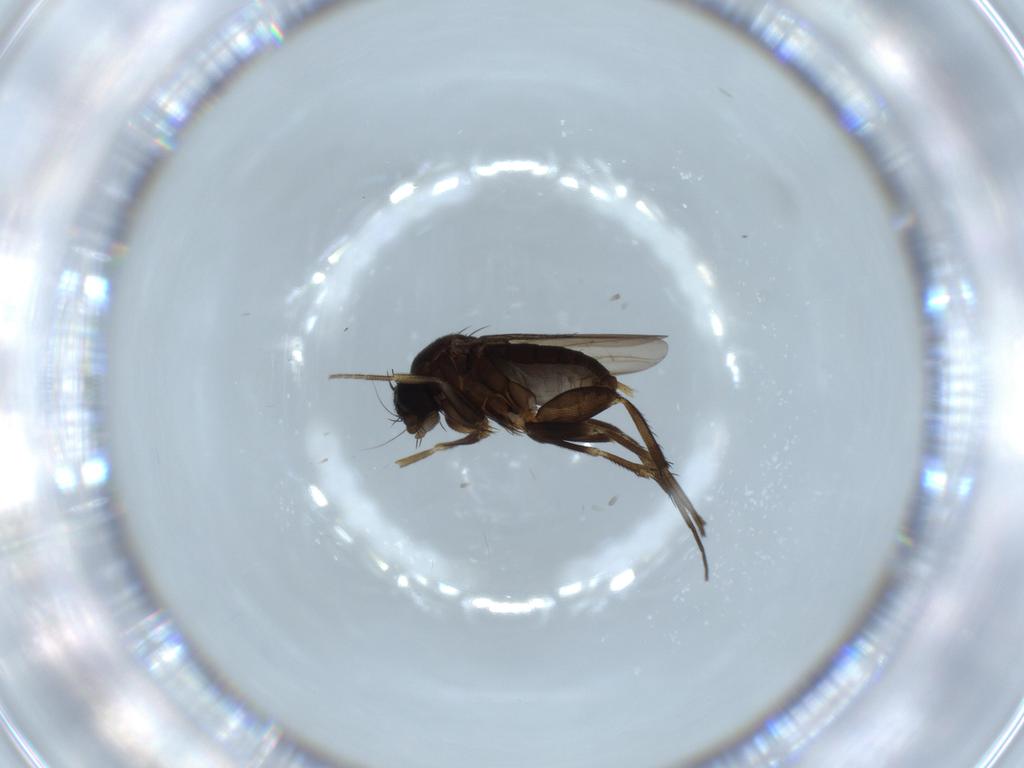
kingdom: Animalia
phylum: Arthropoda
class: Insecta
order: Diptera
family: Phoridae
